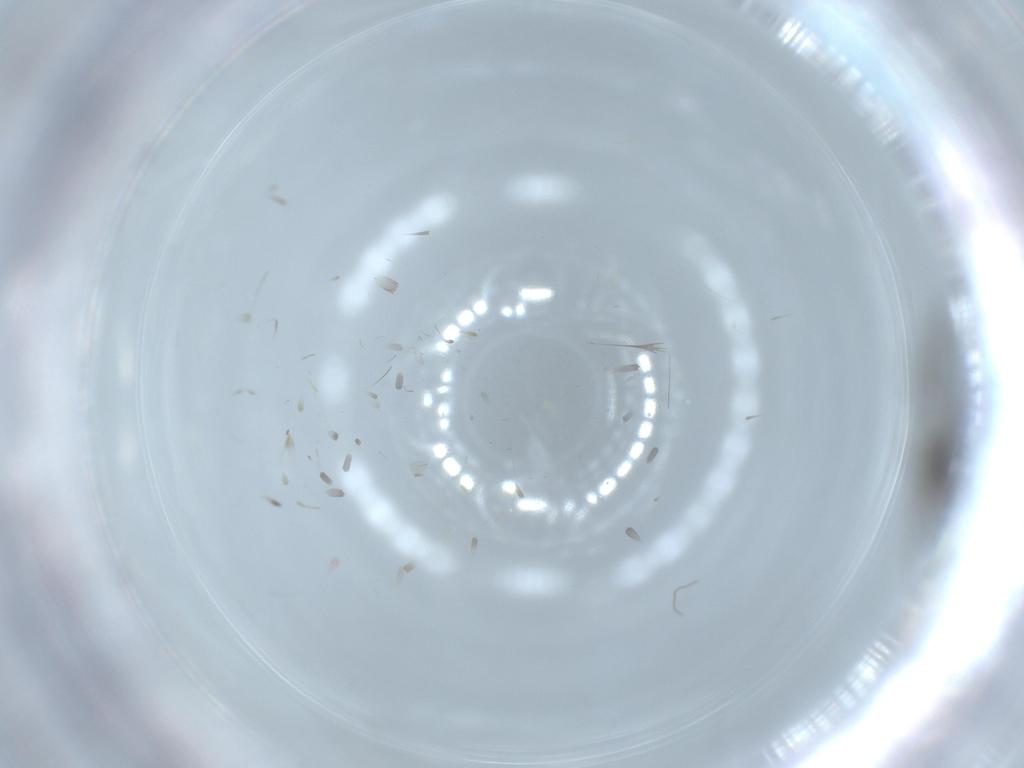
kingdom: Animalia
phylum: Arthropoda
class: Insecta
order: Diptera
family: Sciaridae
